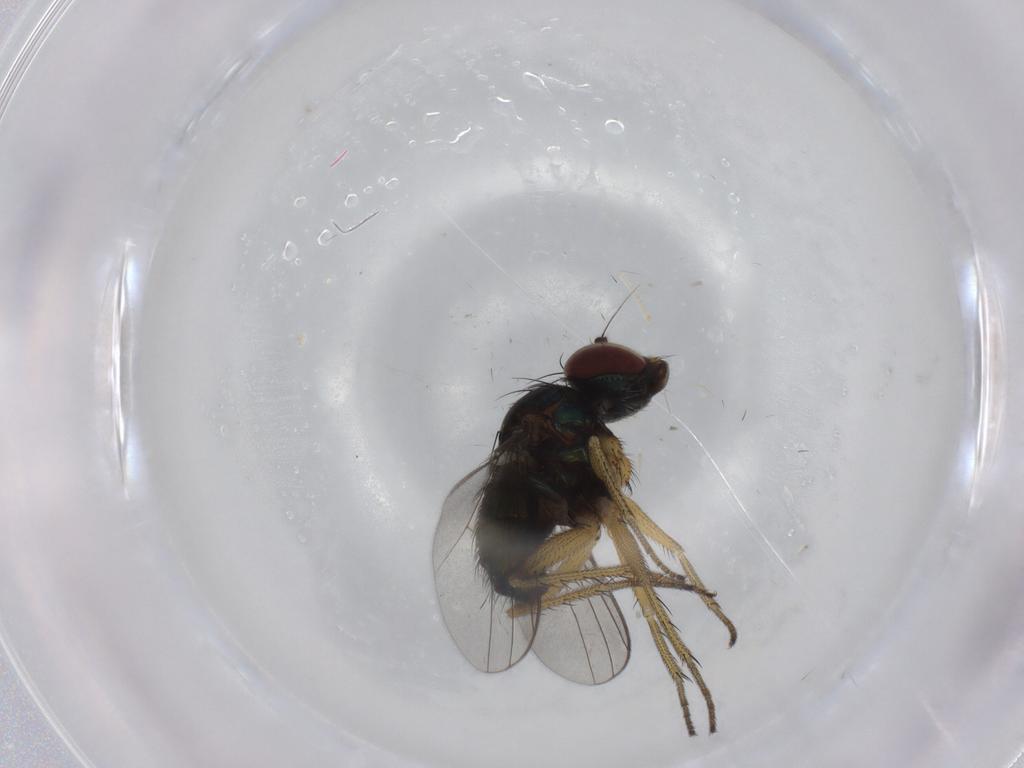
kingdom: Animalia
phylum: Arthropoda
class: Insecta
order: Diptera
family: Dolichopodidae
